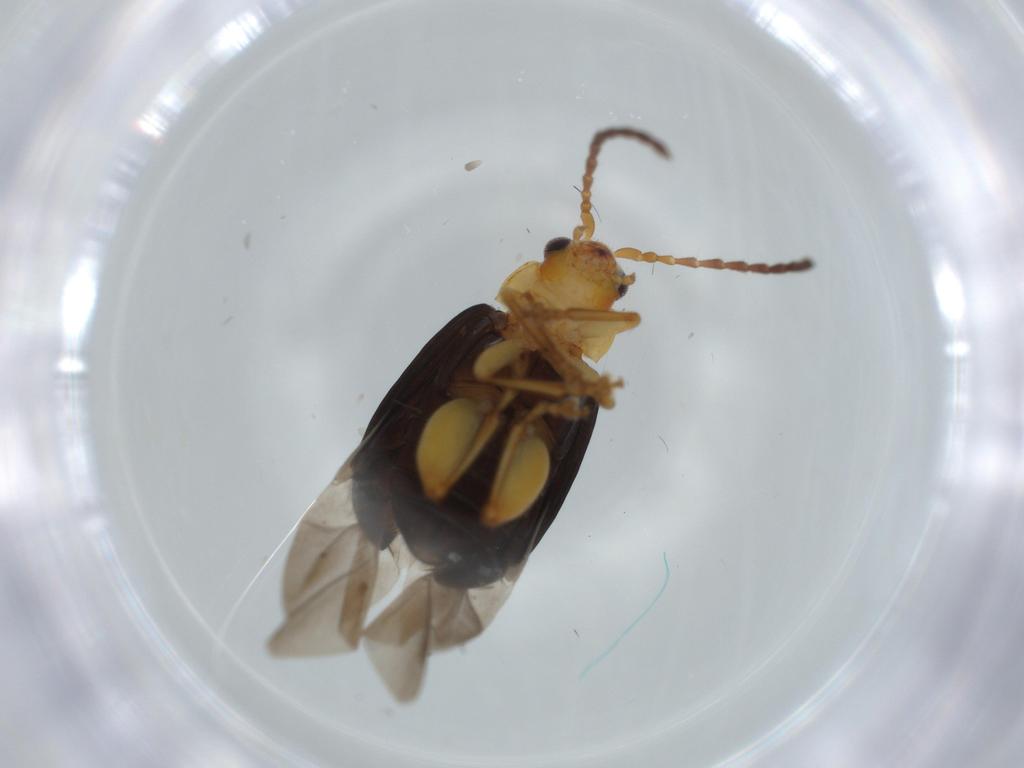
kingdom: Animalia
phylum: Arthropoda
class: Insecta
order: Coleoptera
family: Chrysomelidae
